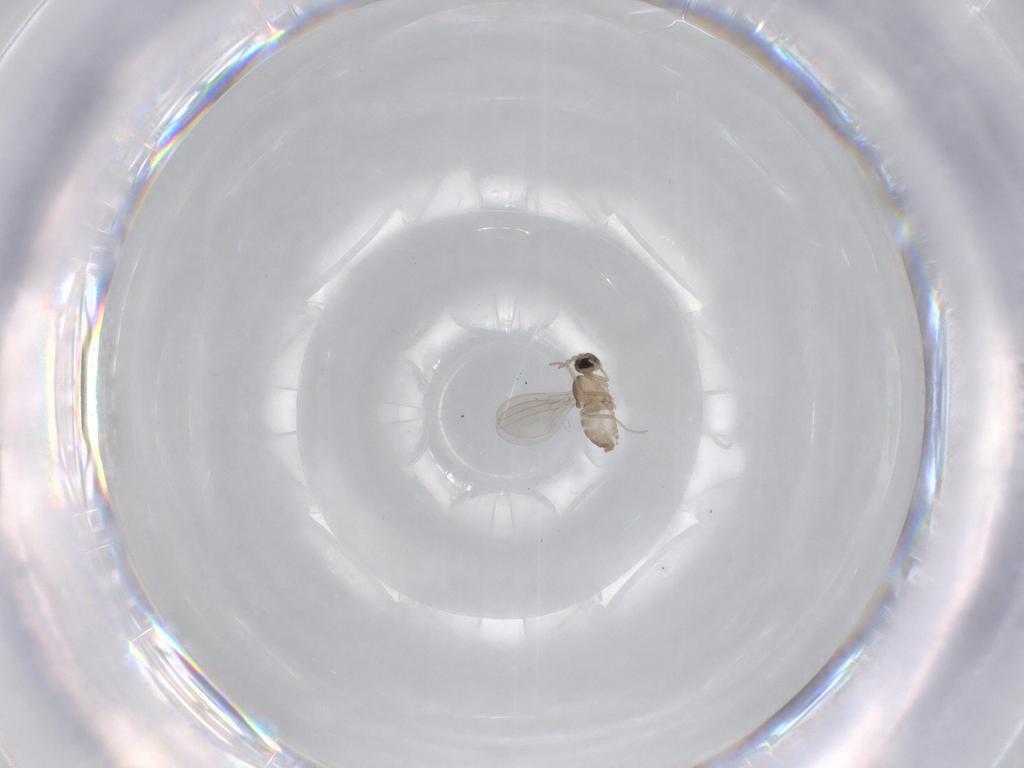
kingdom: Animalia
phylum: Arthropoda
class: Insecta
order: Diptera
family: Cecidomyiidae
